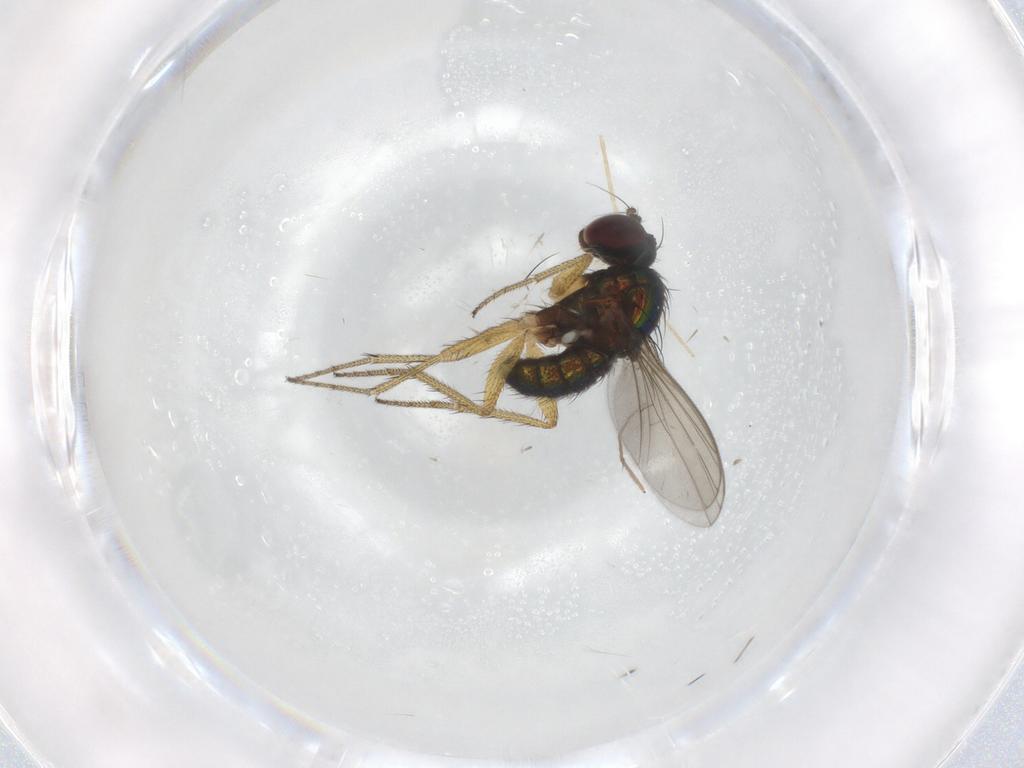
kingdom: Animalia
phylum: Arthropoda
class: Insecta
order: Diptera
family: Dolichopodidae
